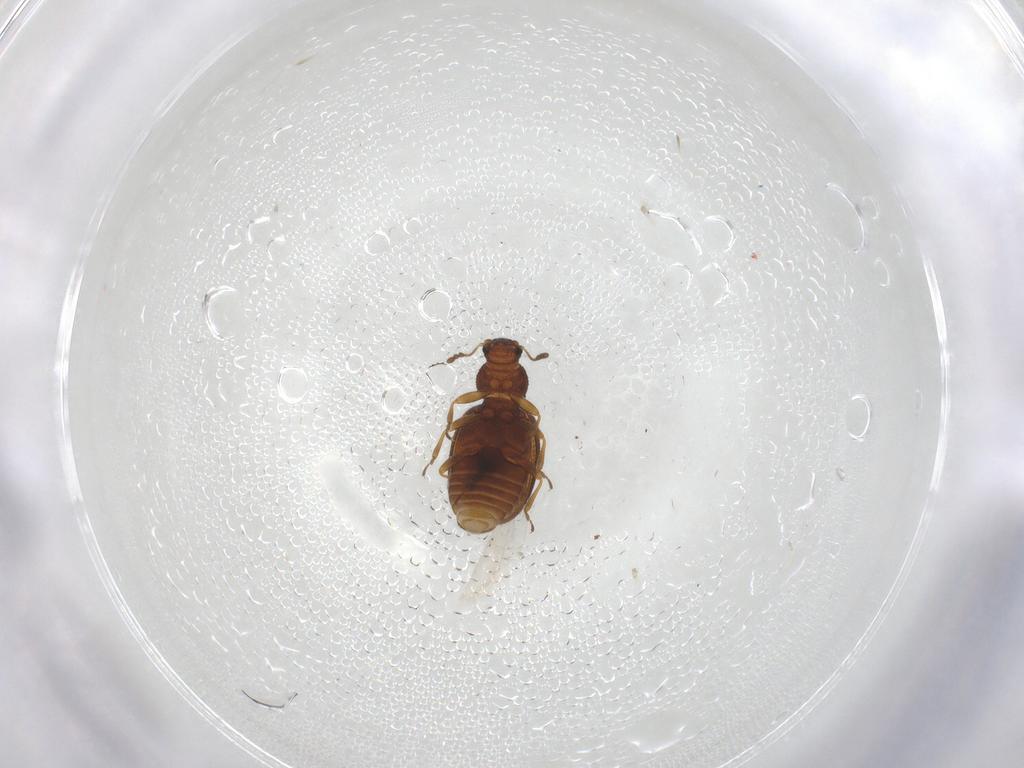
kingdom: Animalia
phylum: Arthropoda
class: Insecta
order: Coleoptera
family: Latridiidae
